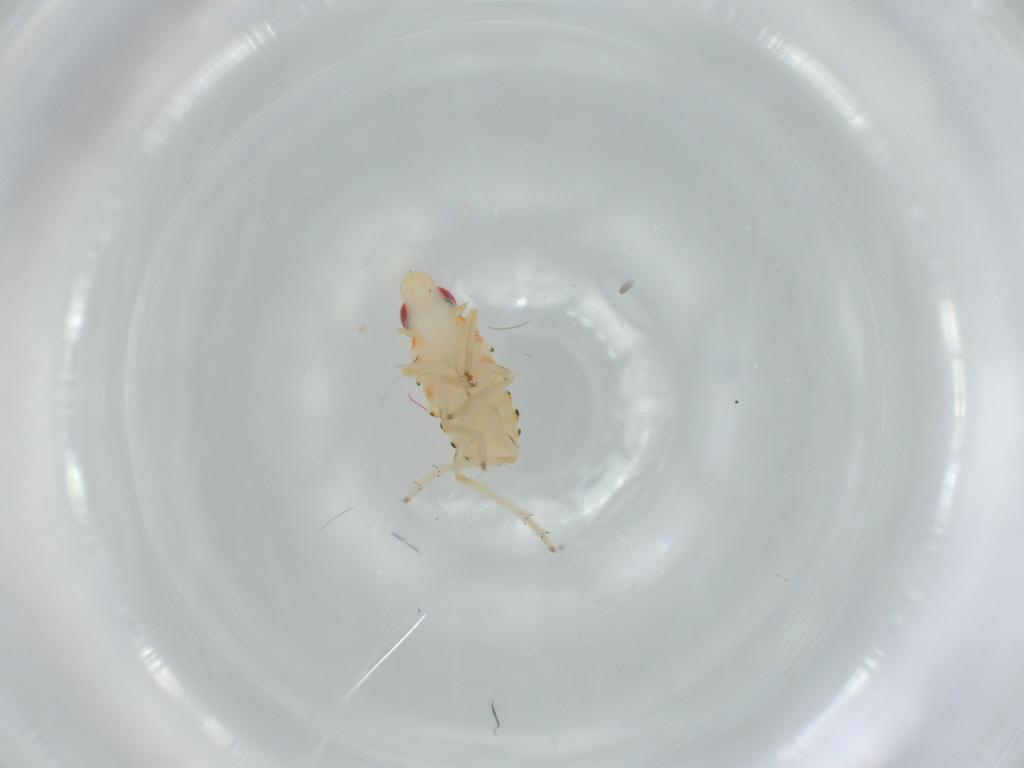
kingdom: Animalia
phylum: Arthropoda
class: Insecta
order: Hemiptera
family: Tropiduchidae
